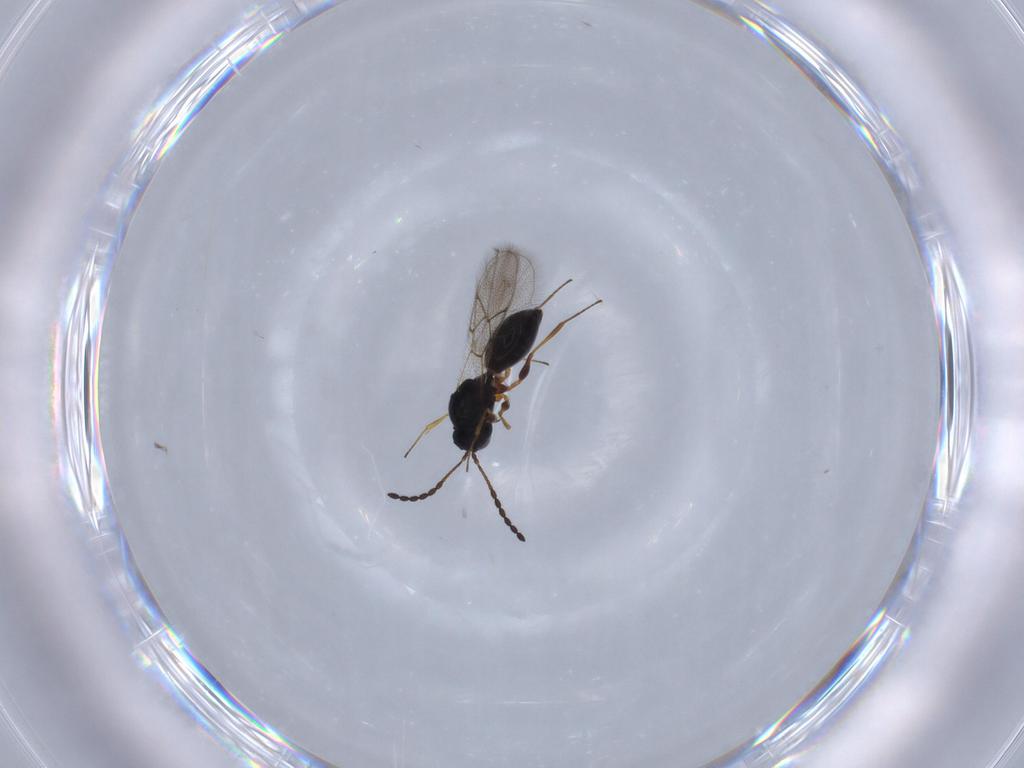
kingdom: Animalia
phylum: Arthropoda
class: Insecta
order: Hymenoptera
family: Figitidae
